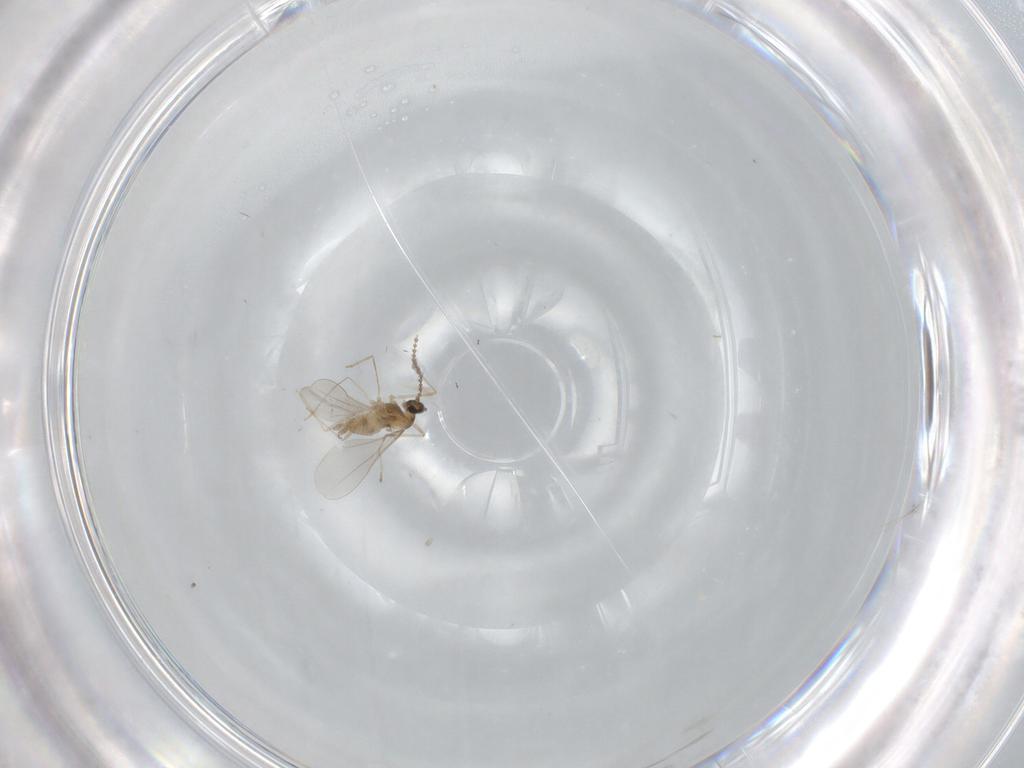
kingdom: Animalia
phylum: Arthropoda
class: Insecta
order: Diptera
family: Cecidomyiidae
